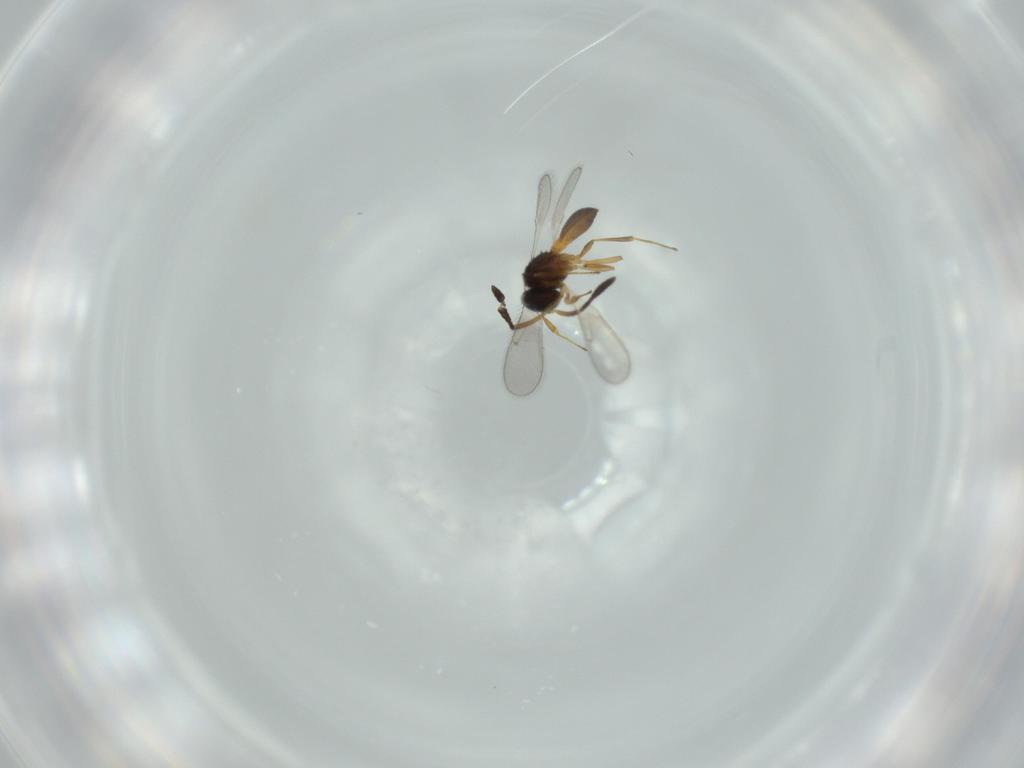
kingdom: Animalia
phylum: Arthropoda
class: Insecta
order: Hymenoptera
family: Scelionidae
